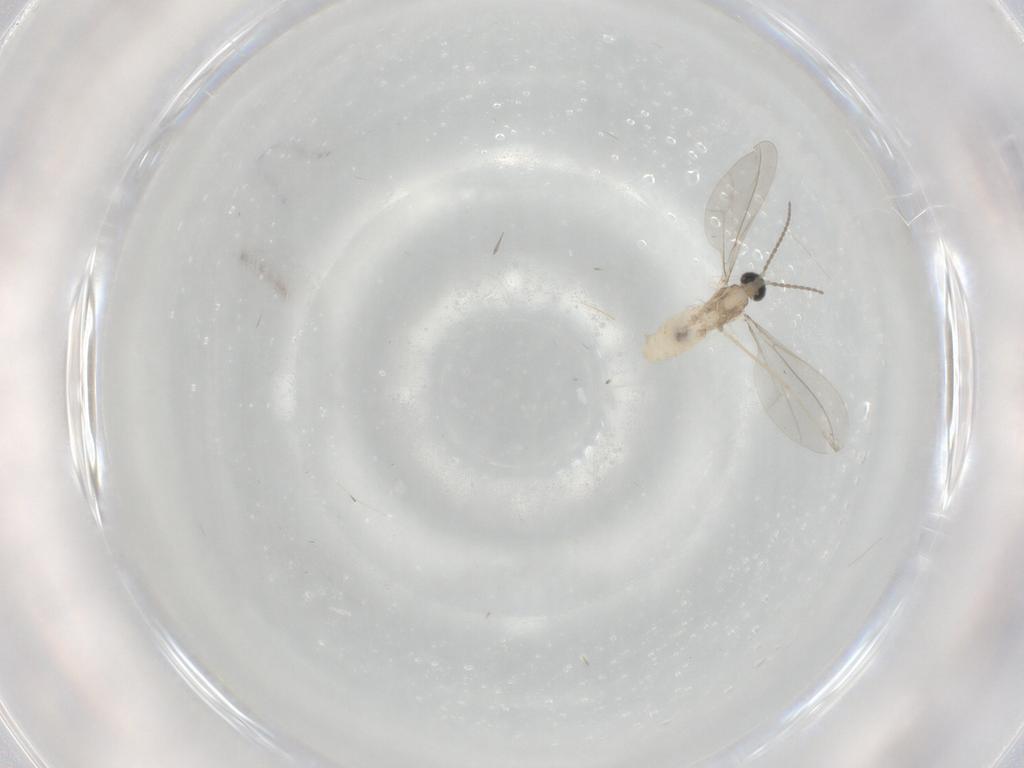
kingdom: Animalia
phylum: Arthropoda
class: Insecta
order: Diptera
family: Cecidomyiidae
